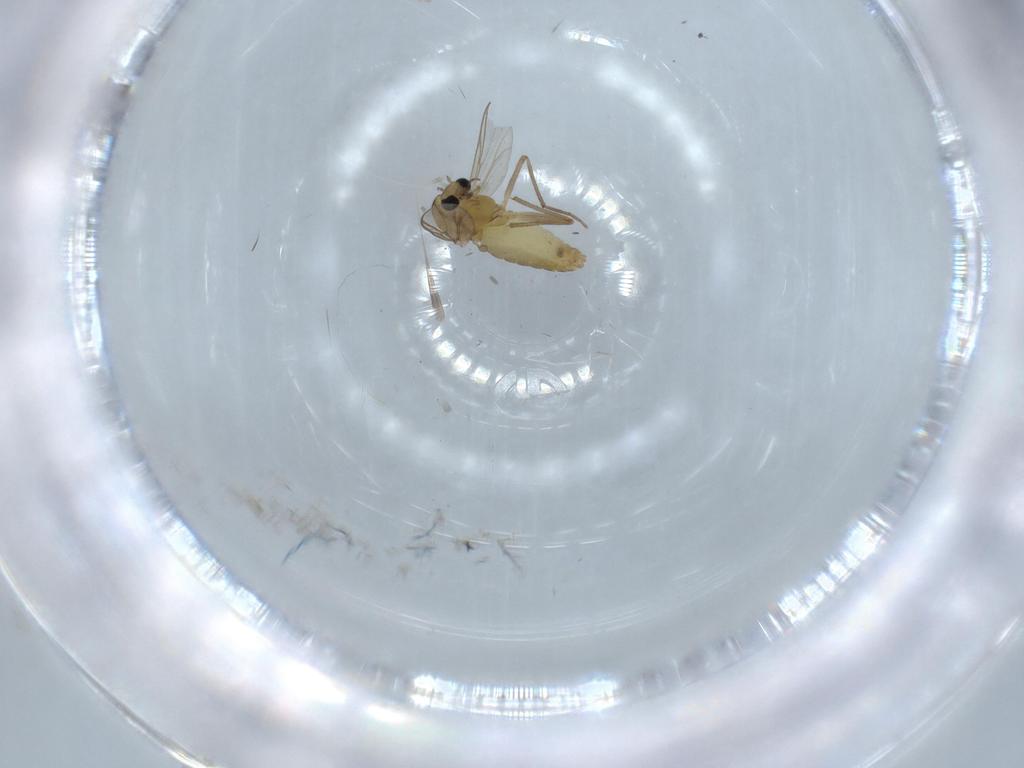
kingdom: Animalia
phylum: Arthropoda
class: Insecta
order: Diptera
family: Chironomidae
